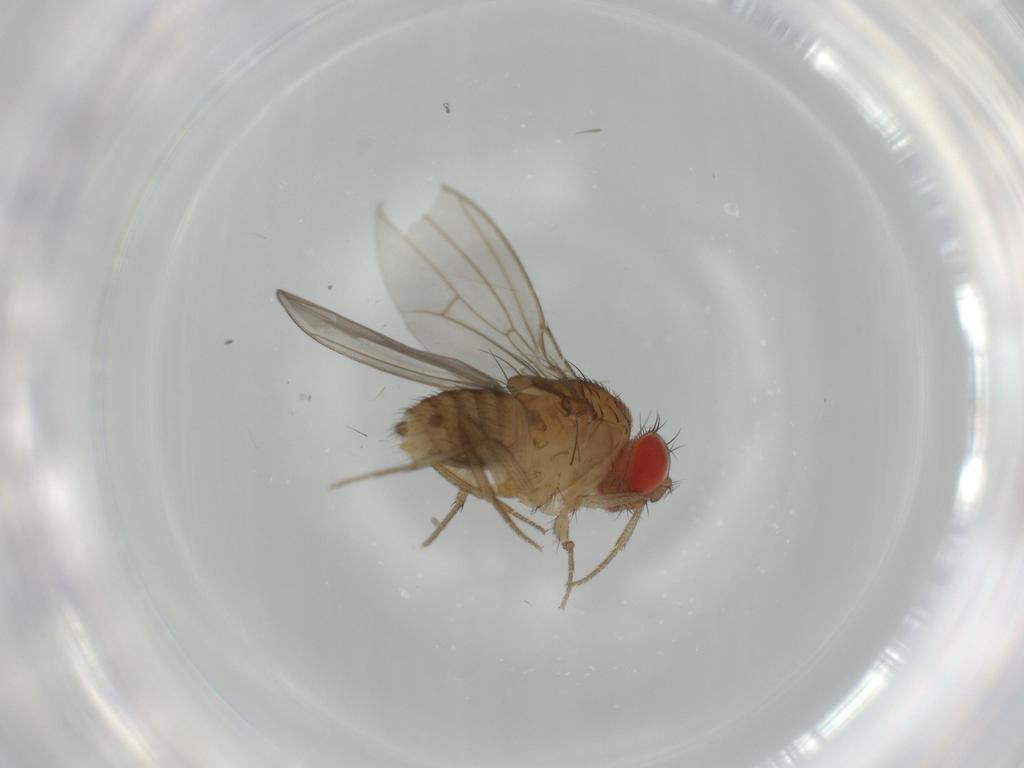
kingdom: Animalia
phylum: Arthropoda
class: Insecta
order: Diptera
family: Drosophilidae
